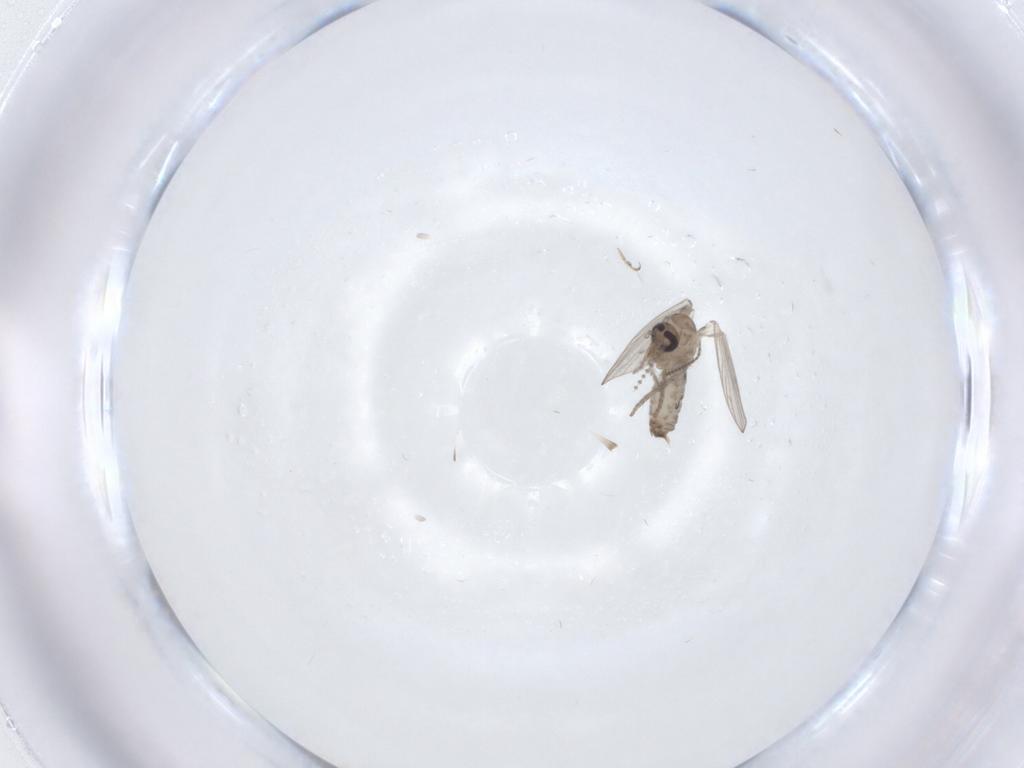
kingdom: Animalia
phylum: Arthropoda
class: Insecta
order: Diptera
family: Psychodidae
